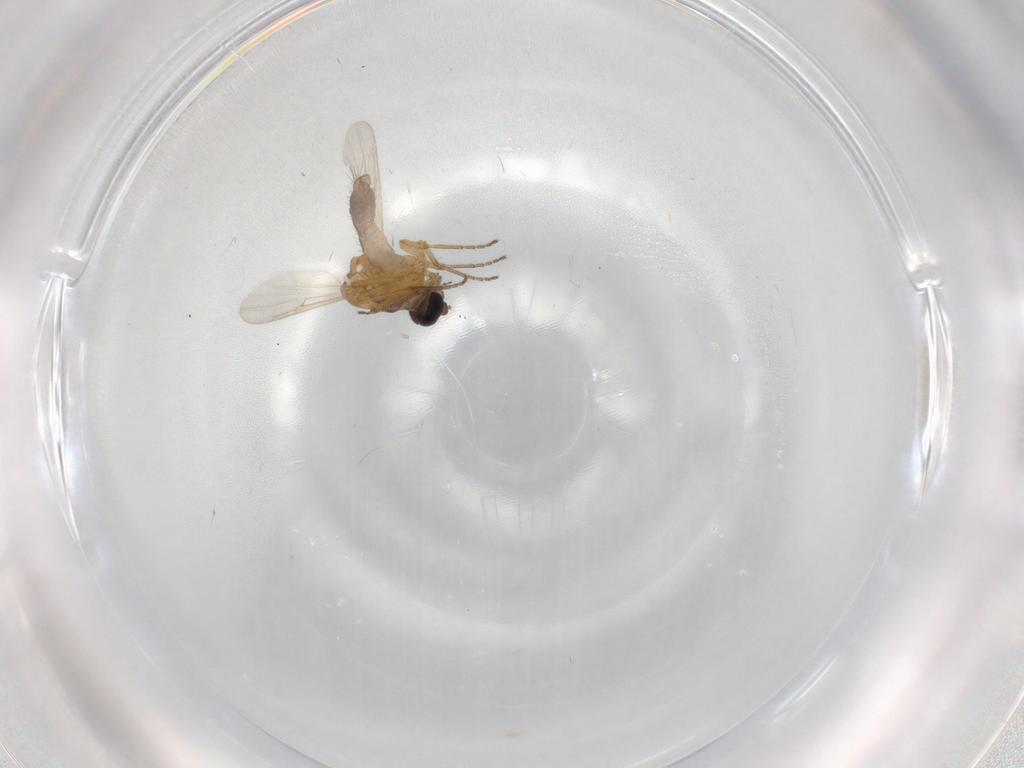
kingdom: Animalia
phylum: Arthropoda
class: Insecta
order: Diptera
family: Ceratopogonidae
